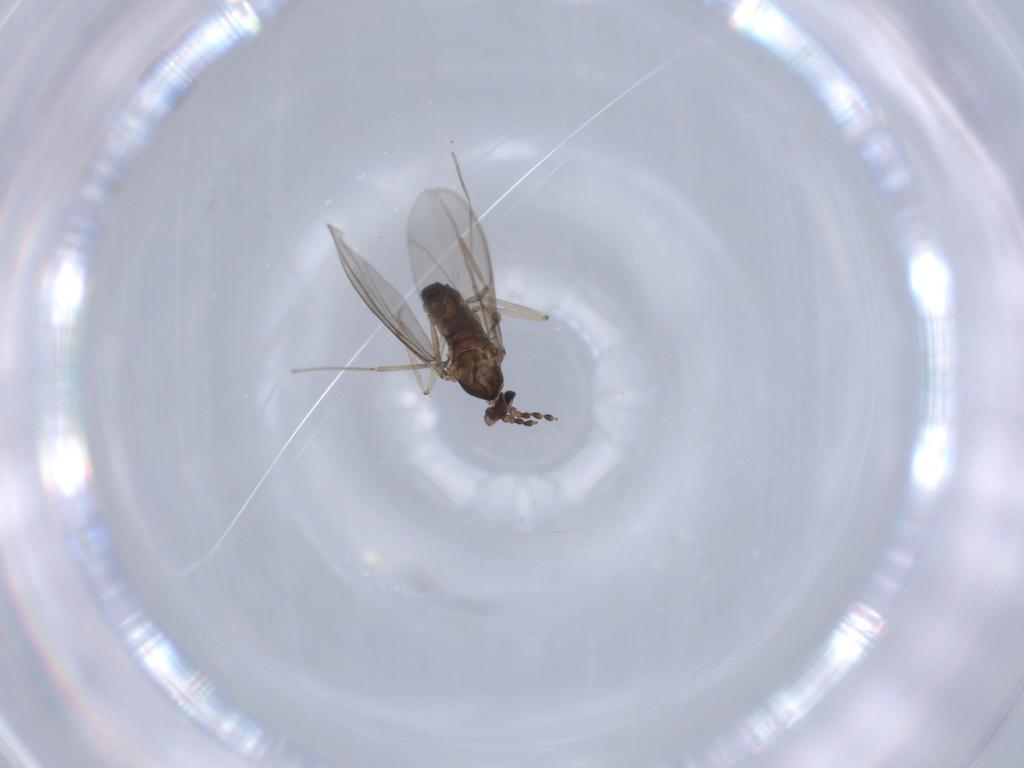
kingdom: Animalia
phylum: Arthropoda
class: Insecta
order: Diptera
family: Cecidomyiidae
